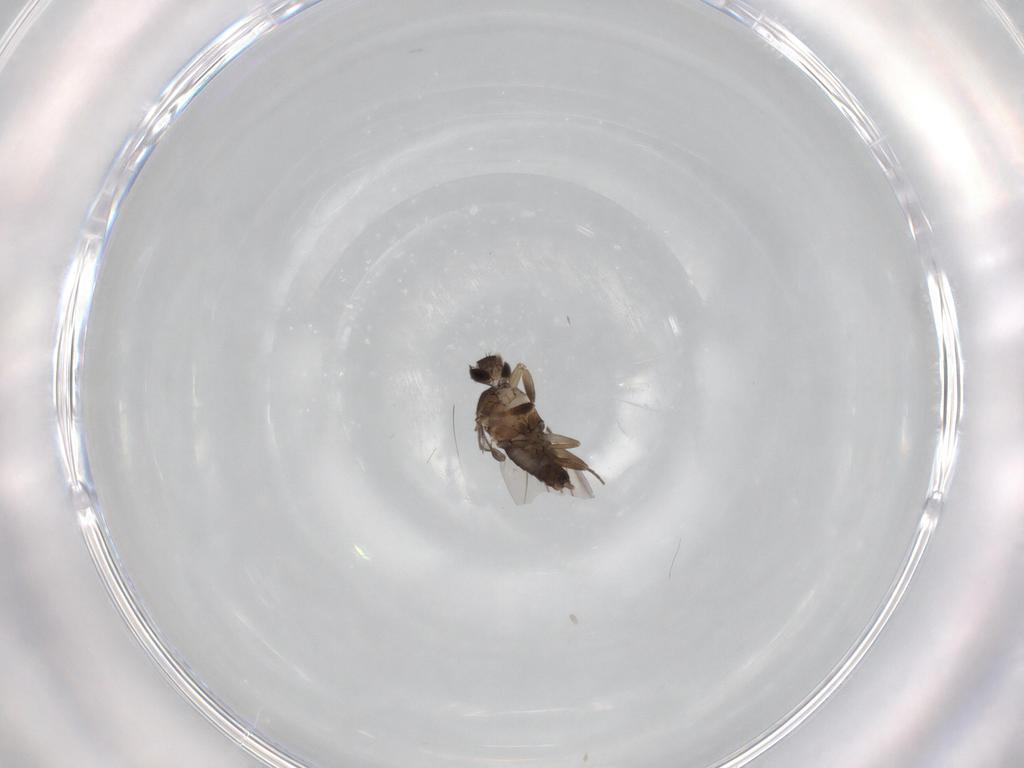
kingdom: Animalia
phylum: Arthropoda
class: Insecta
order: Diptera
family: Phoridae
